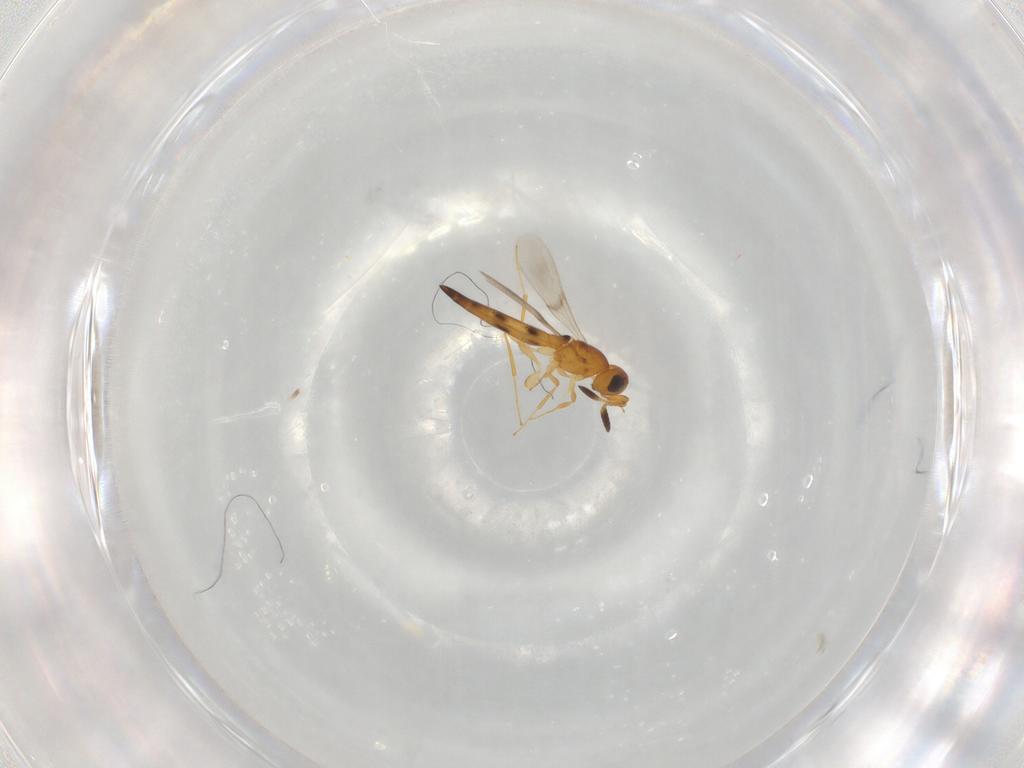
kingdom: Animalia
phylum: Arthropoda
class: Insecta
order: Hymenoptera
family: Scelionidae
